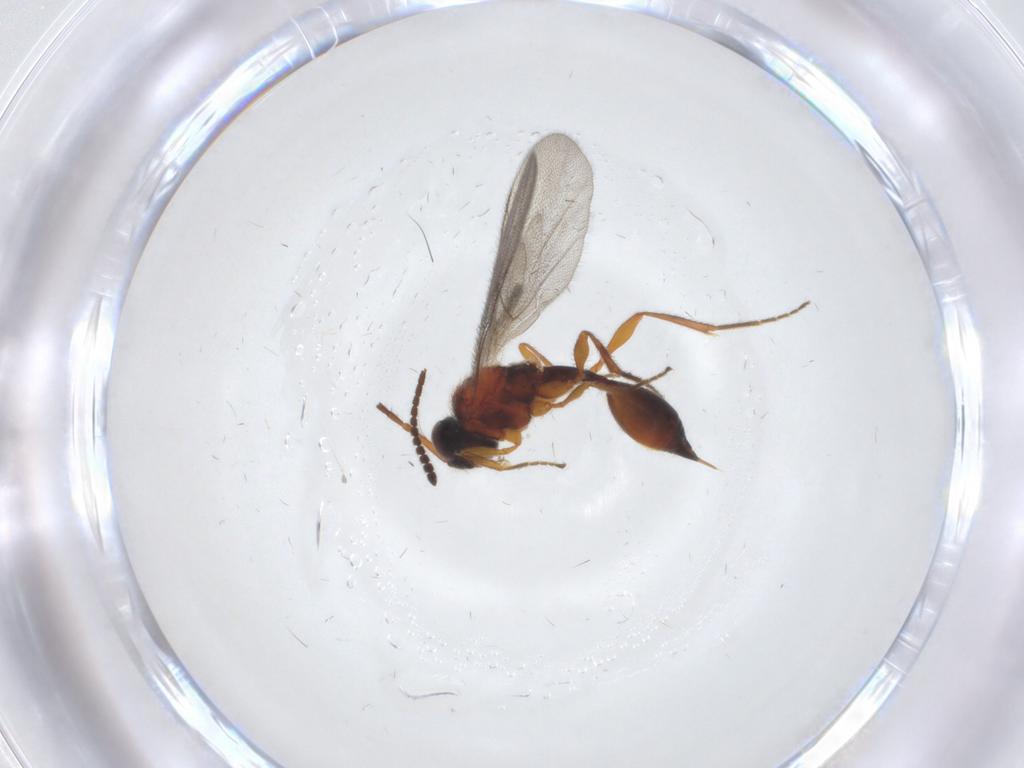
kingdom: Animalia
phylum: Arthropoda
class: Insecta
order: Hymenoptera
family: Diapriidae
